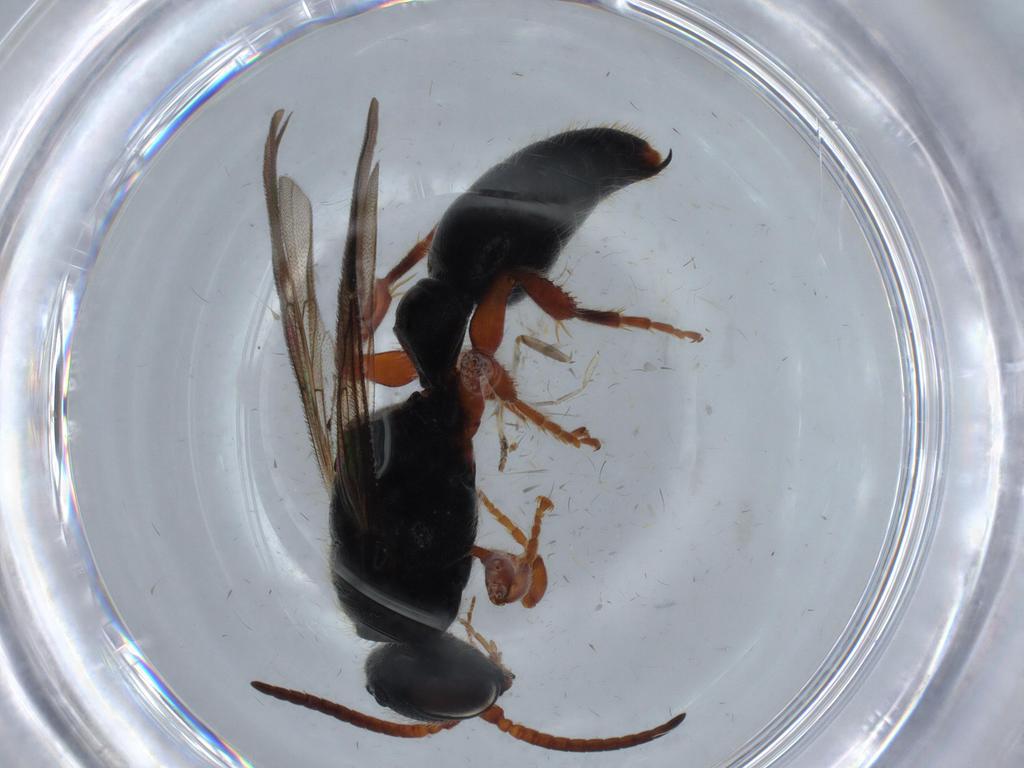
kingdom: Animalia
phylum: Arthropoda
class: Insecta
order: Hymenoptera
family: Tiphiidae
